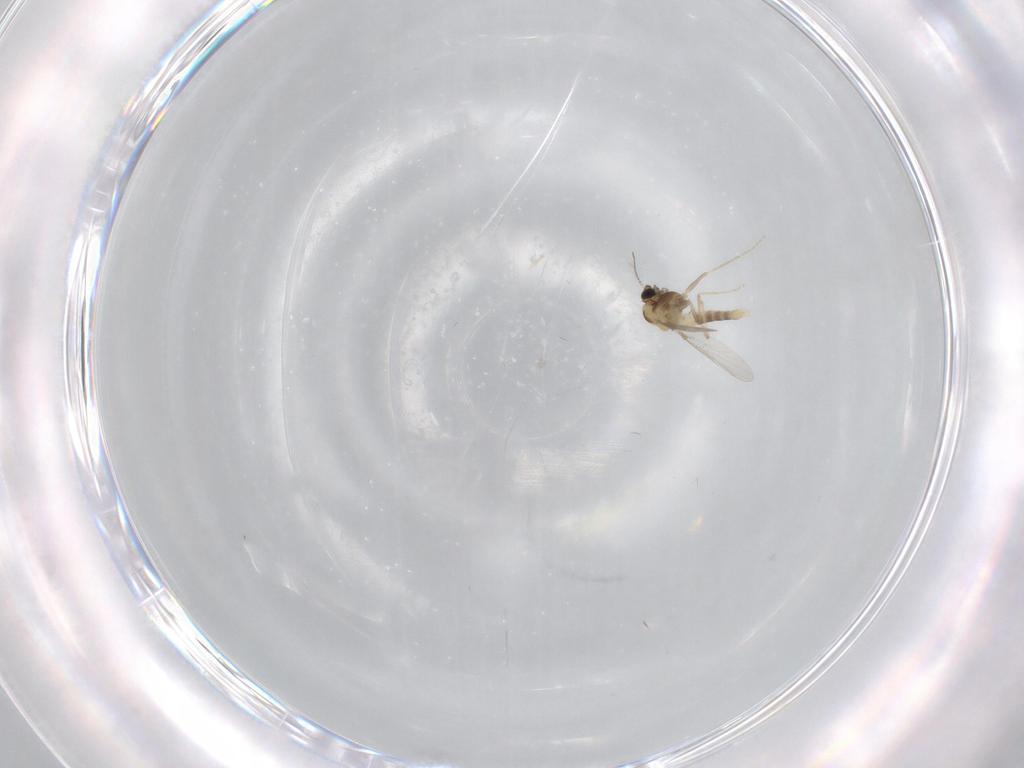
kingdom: Animalia
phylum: Arthropoda
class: Insecta
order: Diptera
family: Chironomidae
